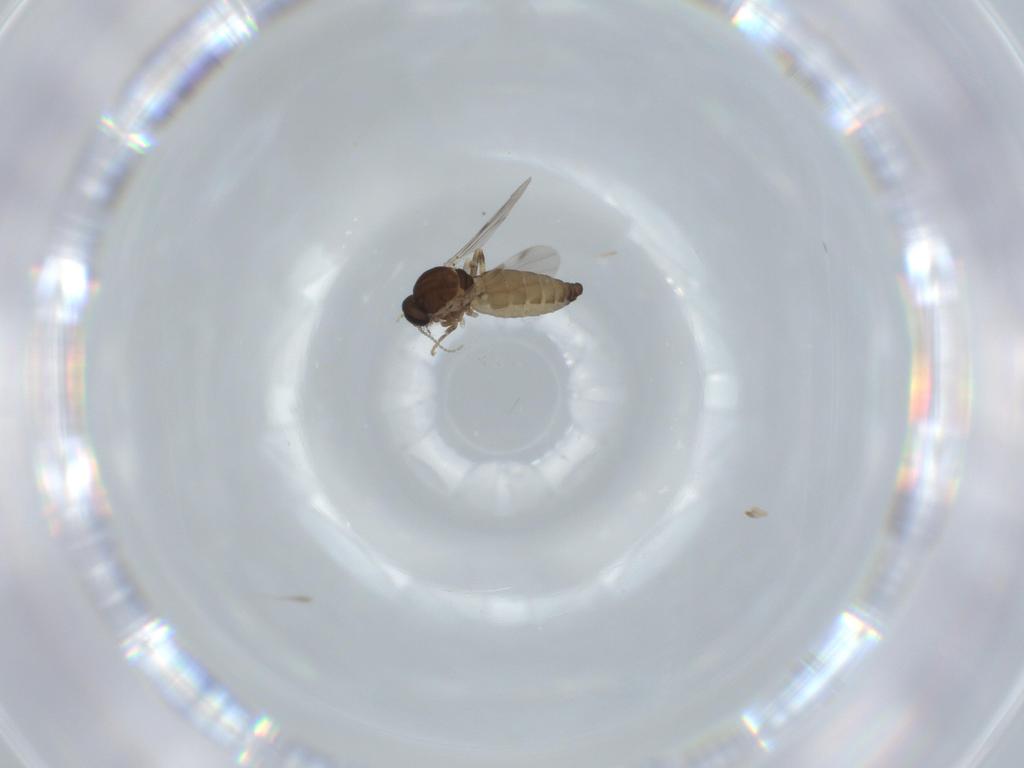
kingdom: Animalia
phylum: Arthropoda
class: Insecta
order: Diptera
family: Ceratopogonidae
